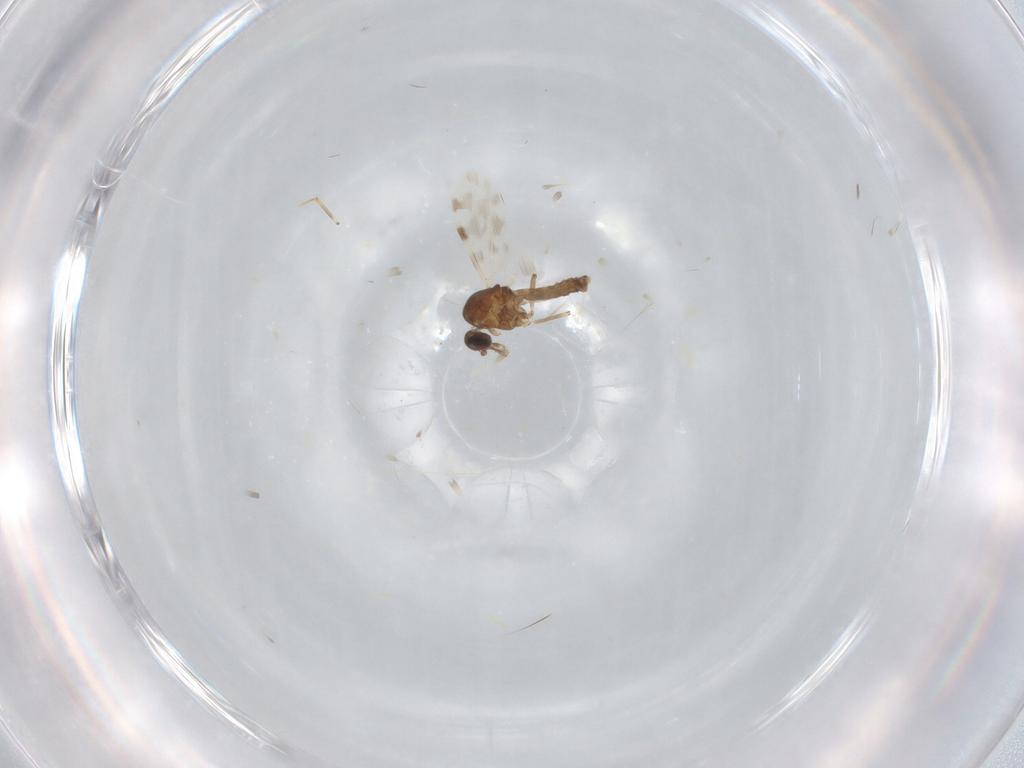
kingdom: Animalia
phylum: Arthropoda
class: Insecta
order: Diptera
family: Ceratopogonidae
